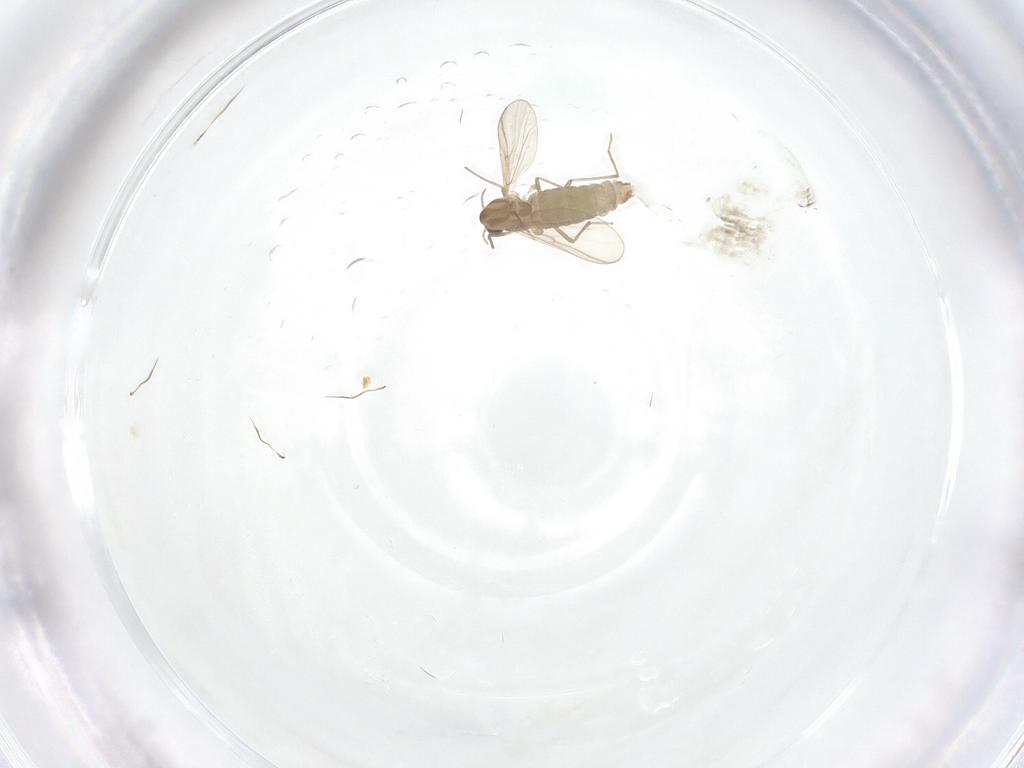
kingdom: Animalia
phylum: Arthropoda
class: Insecta
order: Diptera
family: Chironomidae
